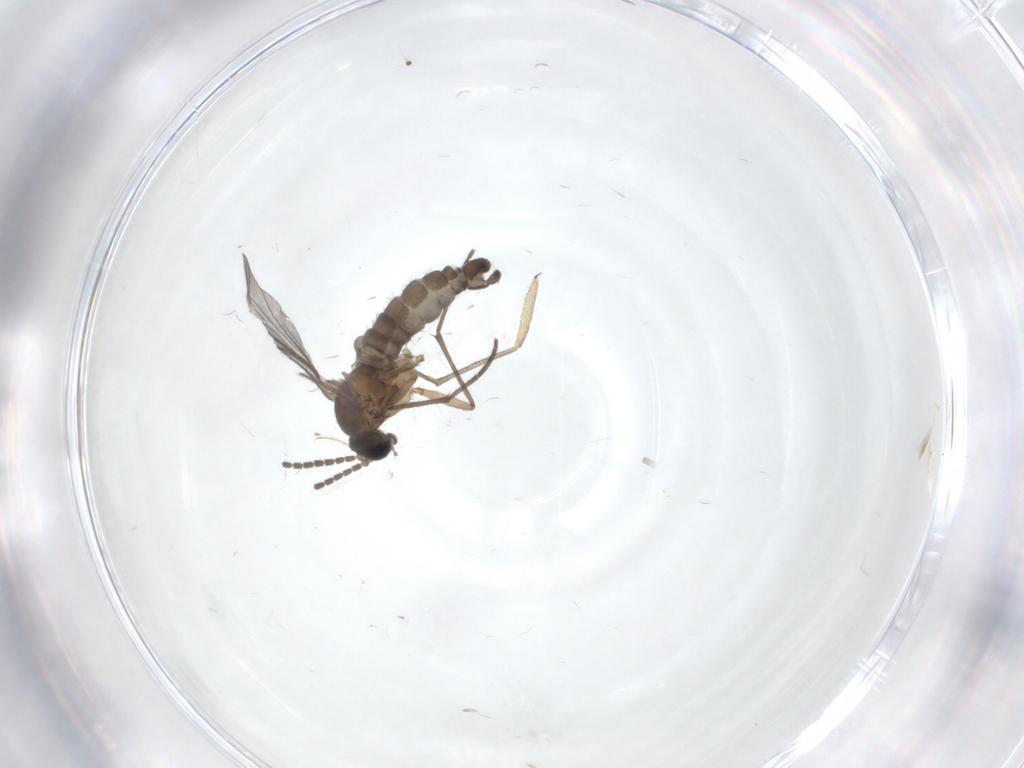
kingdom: Animalia
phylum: Arthropoda
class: Insecta
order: Diptera
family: Sciaridae
